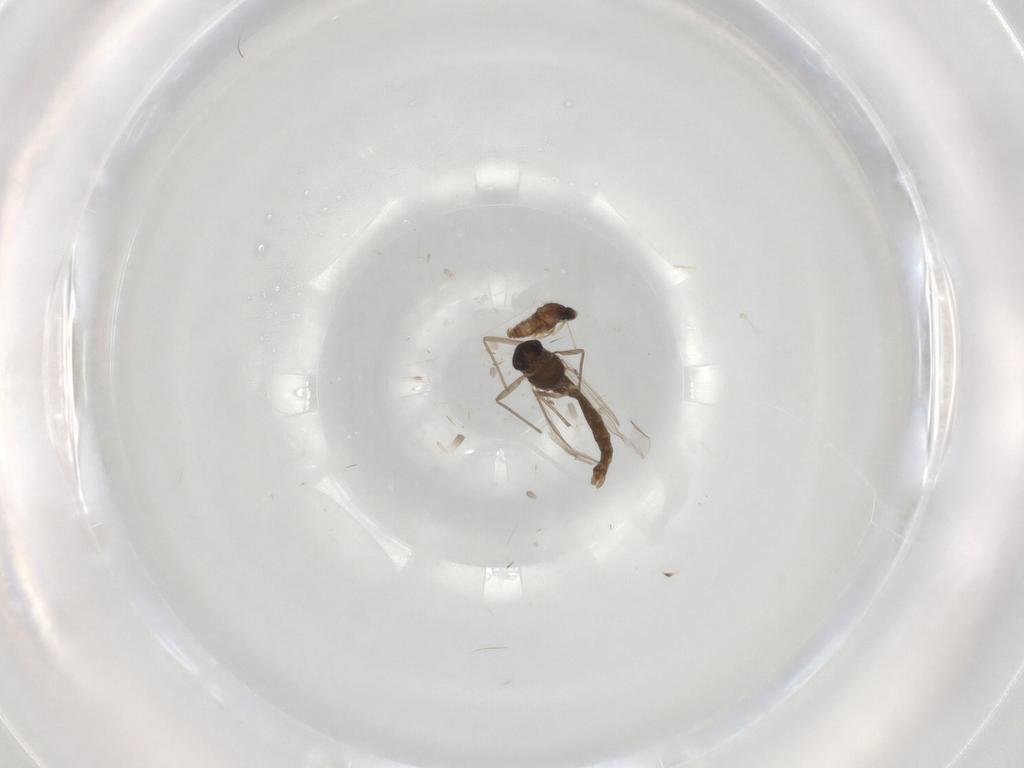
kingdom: Animalia
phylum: Arthropoda
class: Insecta
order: Diptera
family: Chironomidae
